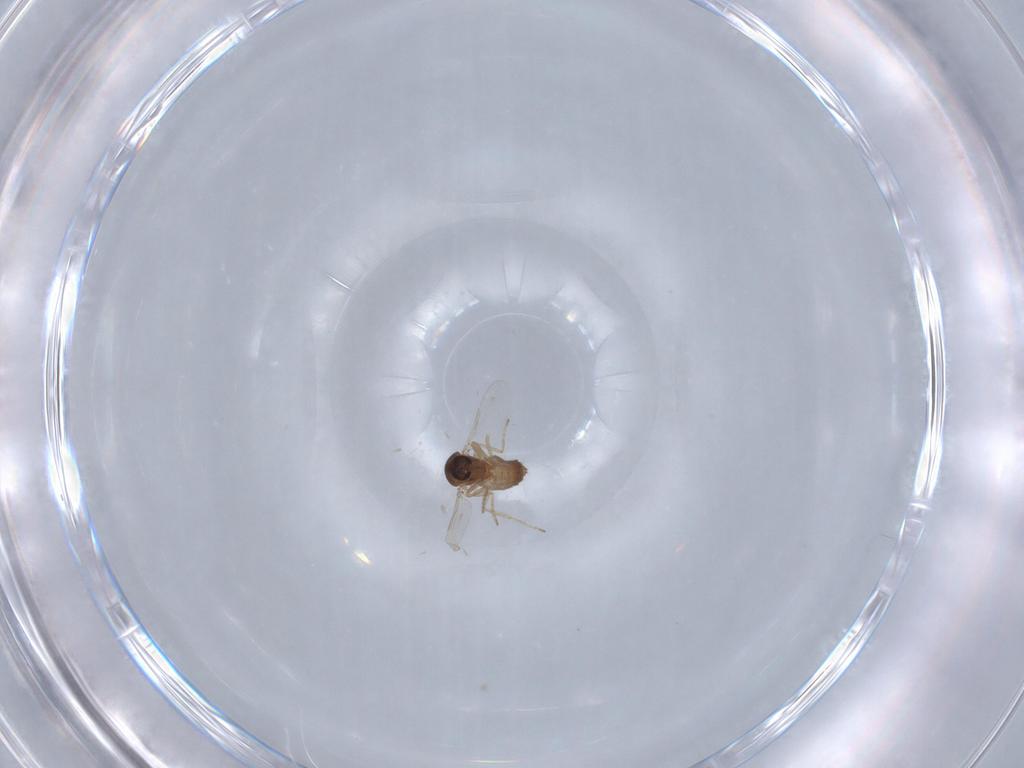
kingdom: Animalia
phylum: Arthropoda
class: Insecta
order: Diptera
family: Ceratopogonidae
